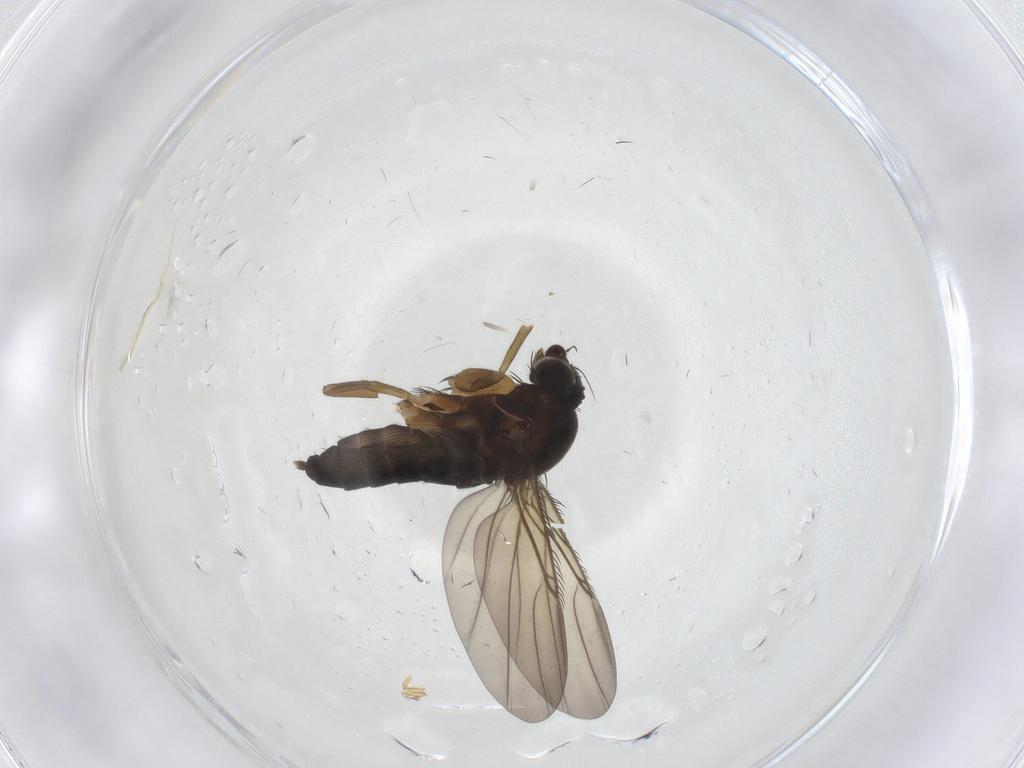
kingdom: Animalia
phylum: Arthropoda
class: Insecta
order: Diptera
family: Phoridae
